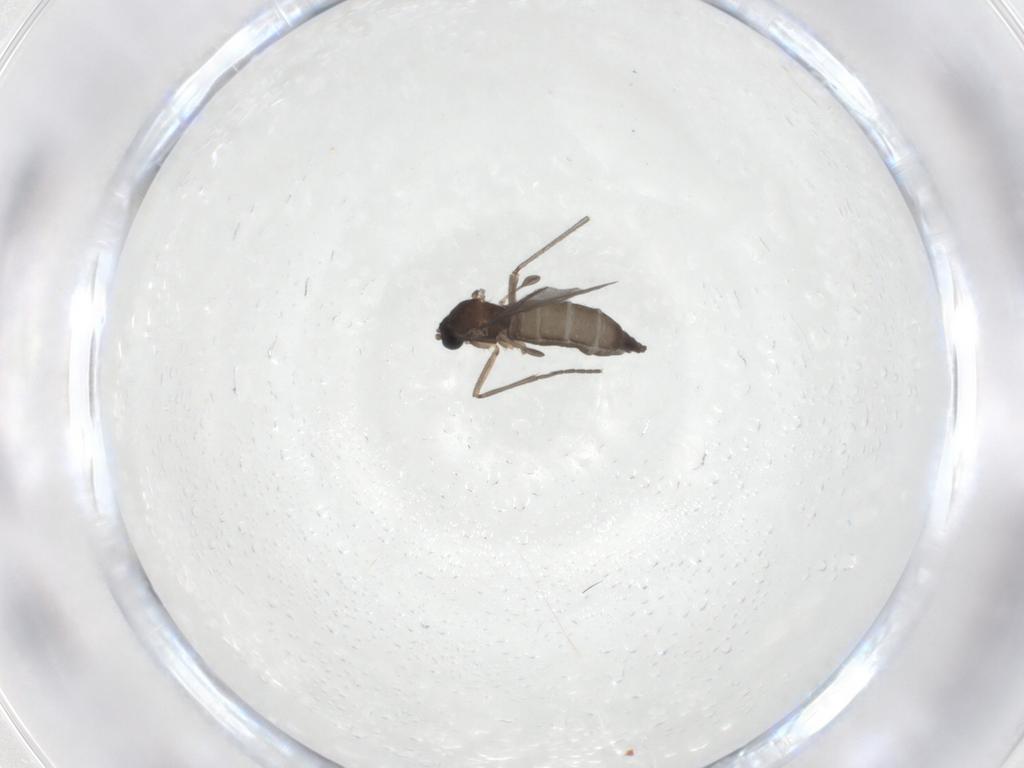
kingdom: Animalia
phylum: Arthropoda
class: Insecta
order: Diptera
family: Sciaridae
